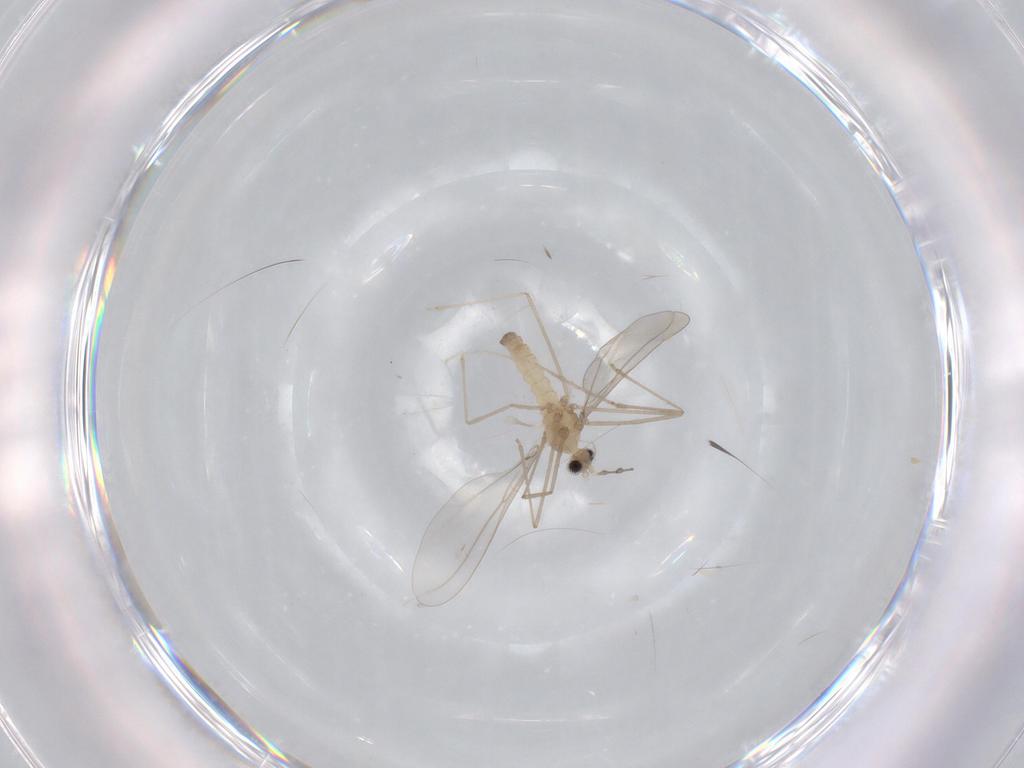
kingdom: Animalia
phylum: Arthropoda
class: Insecta
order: Diptera
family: Cecidomyiidae
